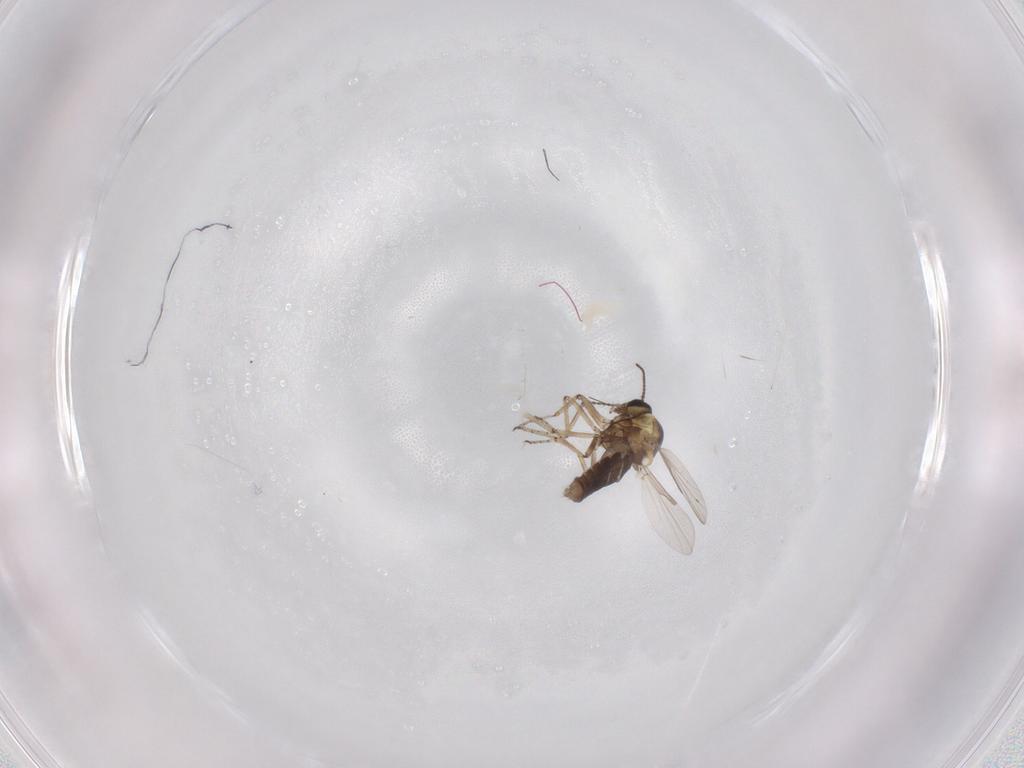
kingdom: Animalia
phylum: Arthropoda
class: Insecta
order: Diptera
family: Ceratopogonidae
